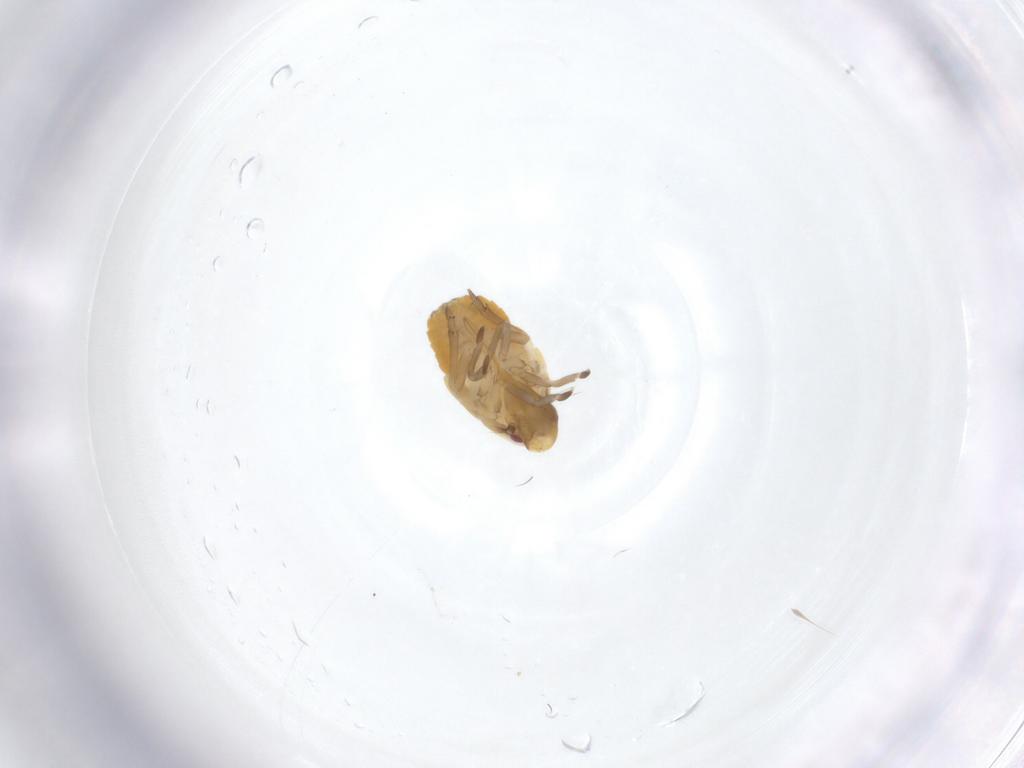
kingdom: Animalia
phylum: Arthropoda
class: Insecta
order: Hemiptera
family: Flatidae
